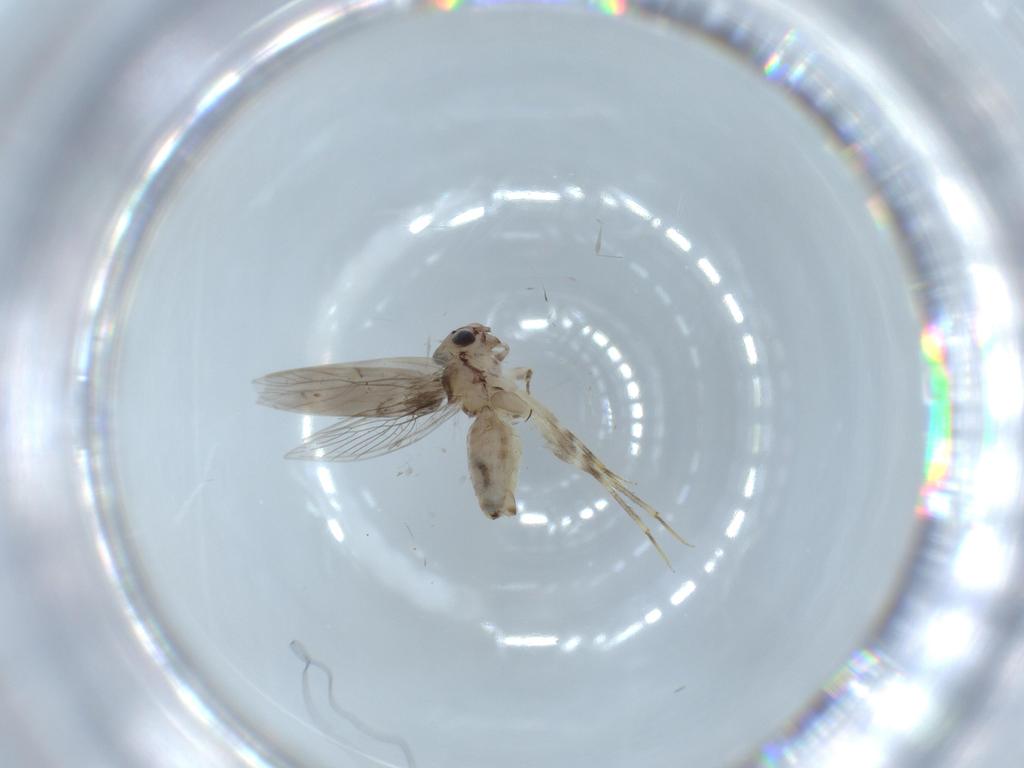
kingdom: Animalia
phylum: Arthropoda
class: Insecta
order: Psocodea
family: Lepidopsocidae
